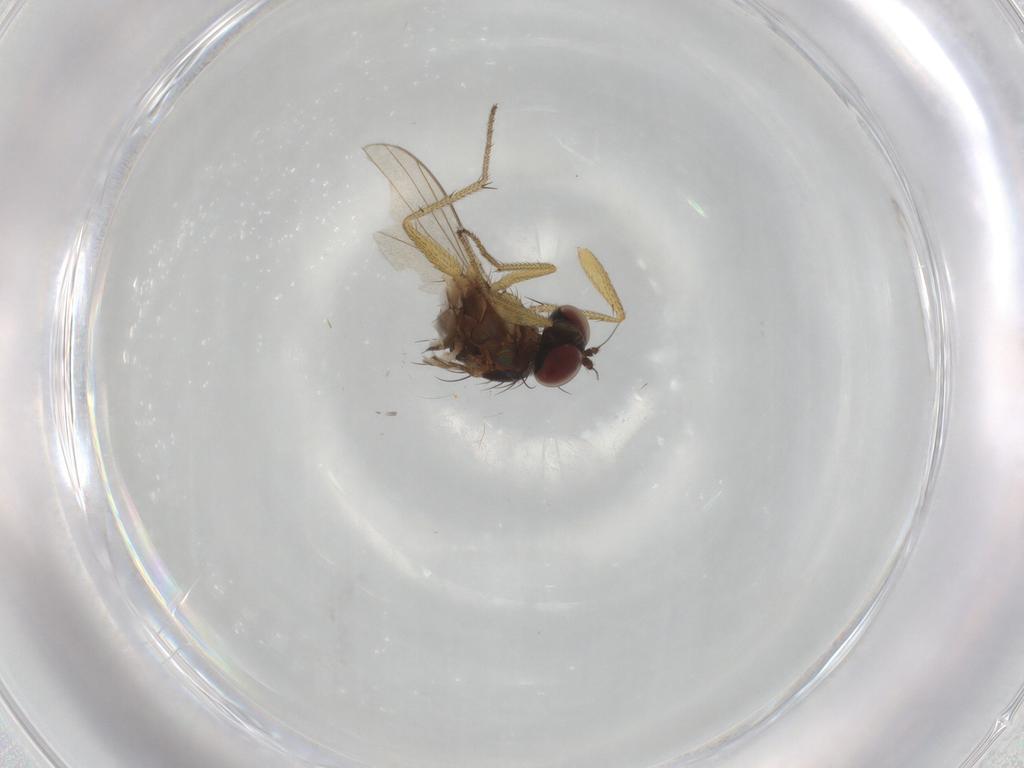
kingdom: Animalia
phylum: Arthropoda
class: Insecta
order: Diptera
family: Dolichopodidae
